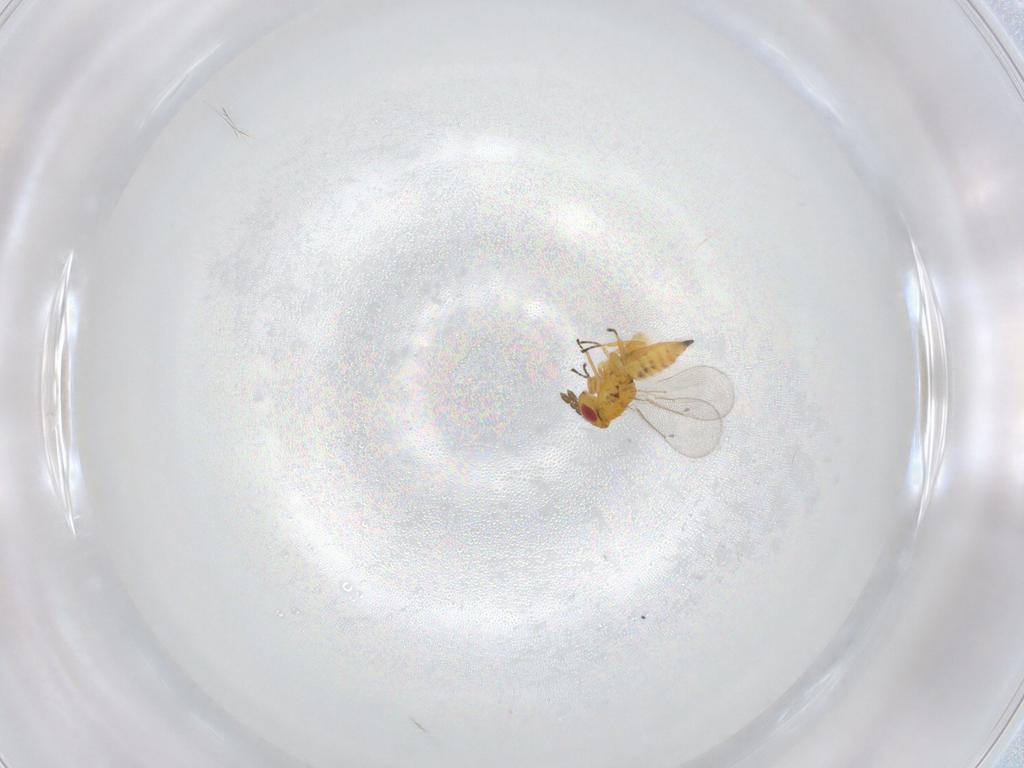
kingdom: Animalia
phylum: Arthropoda
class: Insecta
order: Hymenoptera
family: Eulophidae
